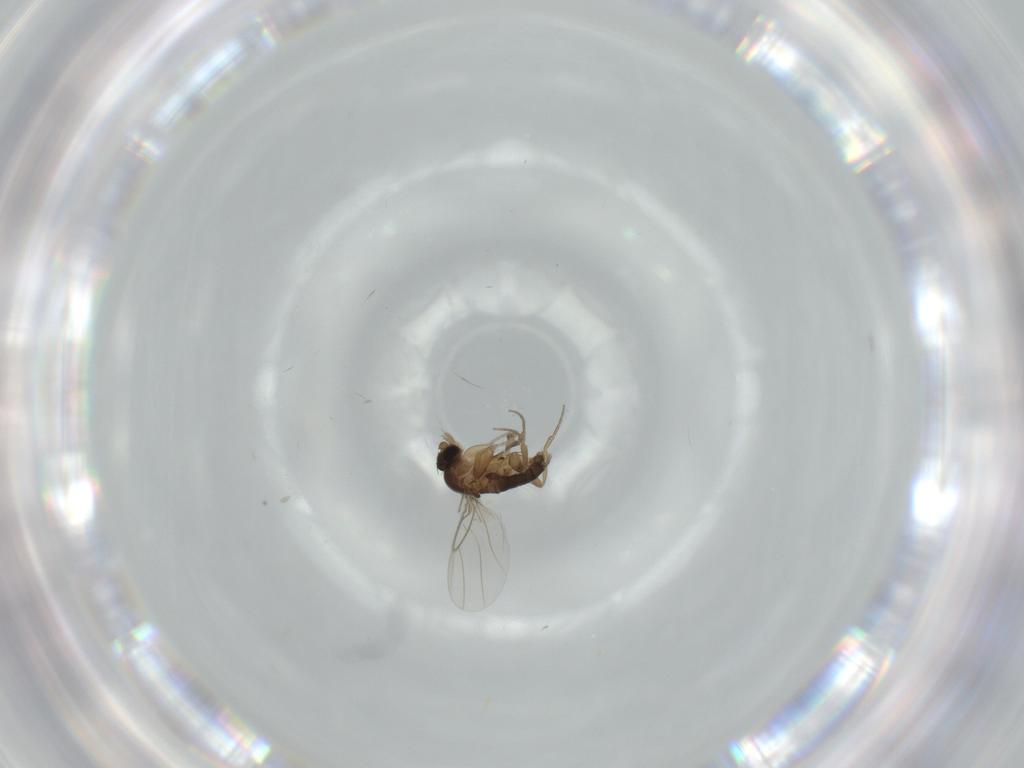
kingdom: Animalia
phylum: Arthropoda
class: Insecta
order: Diptera
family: Phoridae
